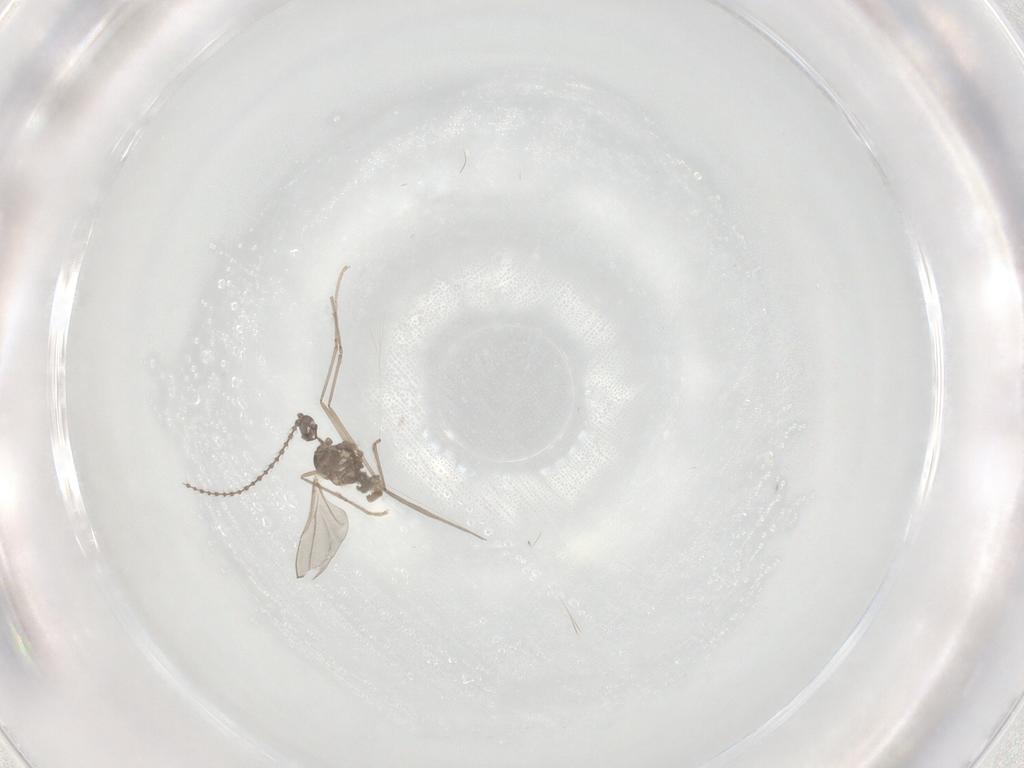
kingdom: Animalia
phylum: Arthropoda
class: Insecta
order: Diptera
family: Cecidomyiidae
